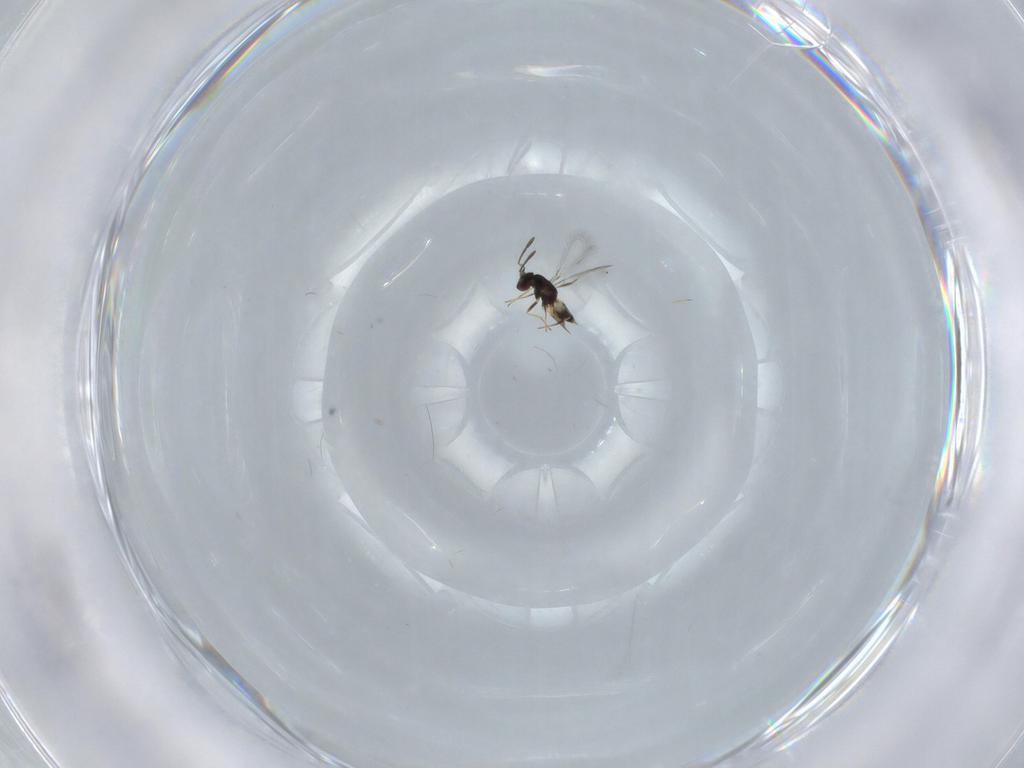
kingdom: Animalia
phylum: Arthropoda
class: Insecta
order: Hymenoptera
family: Mymaridae
